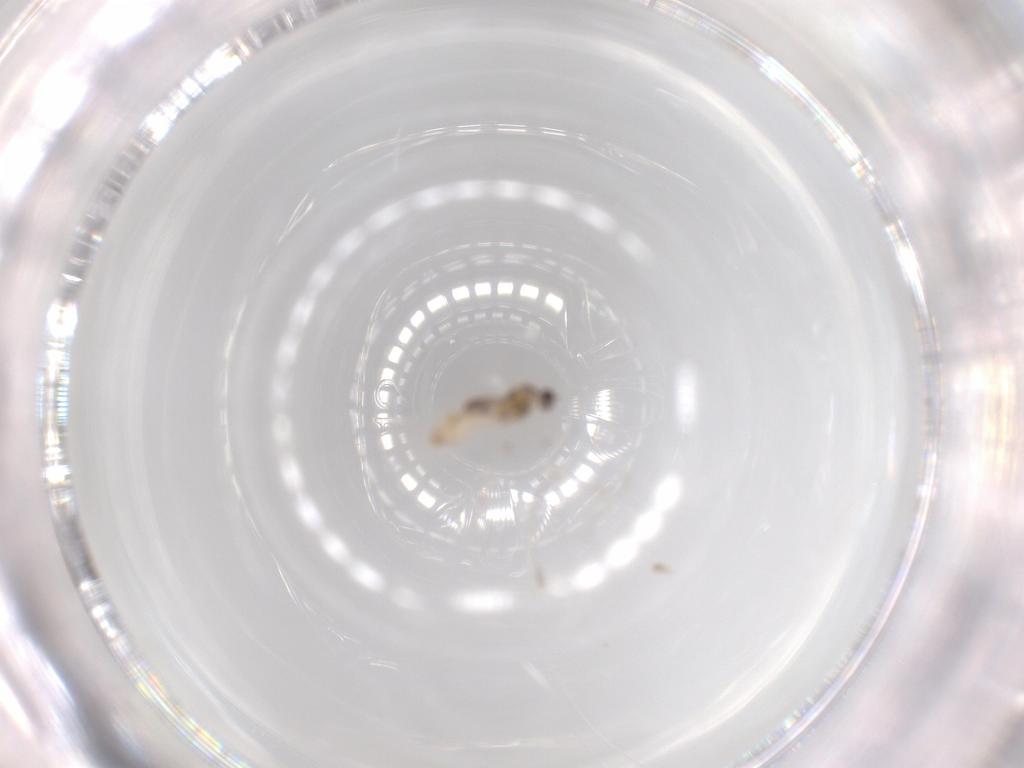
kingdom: Animalia
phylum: Arthropoda
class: Insecta
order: Diptera
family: Cecidomyiidae
